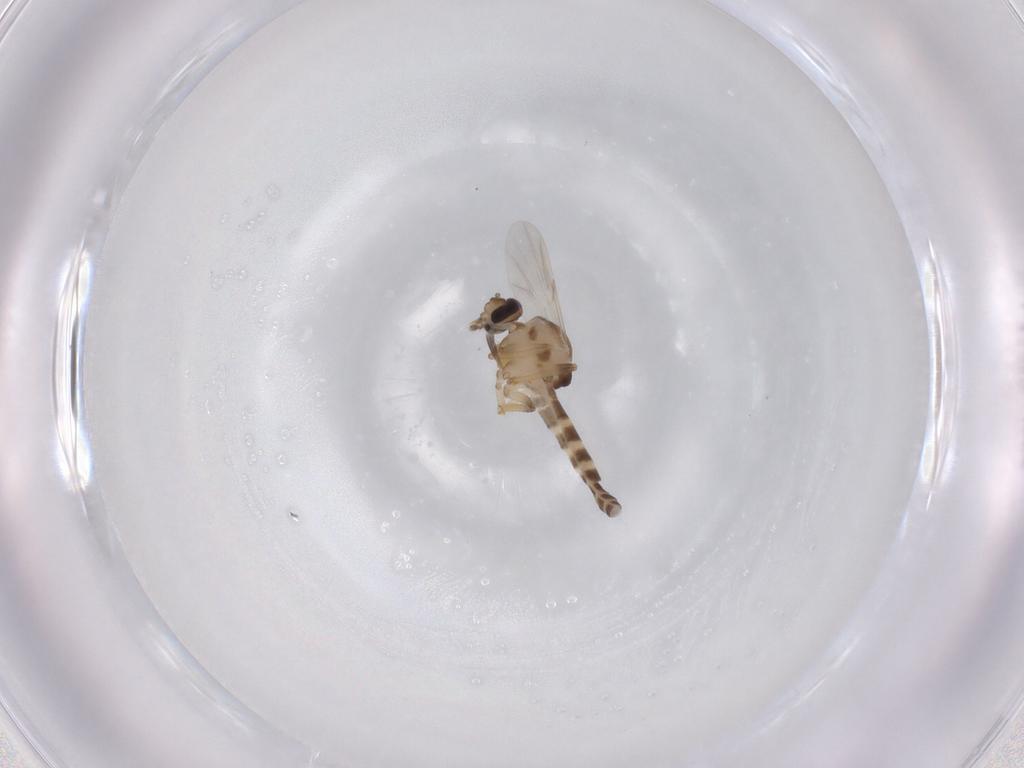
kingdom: Animalia
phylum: Arthropoda
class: Insecta
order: Diptera
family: Ceratopogonidae
